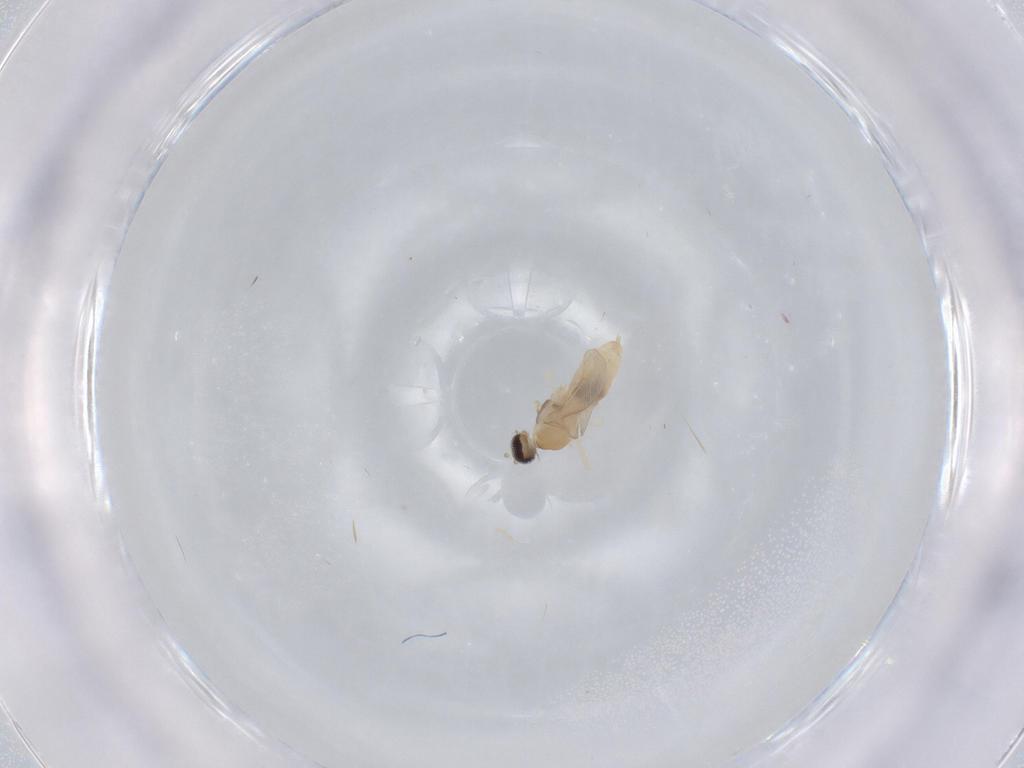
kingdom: Animalia
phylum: Arthropoda
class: Insecta
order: Diptera
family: Cecidomyiidae
